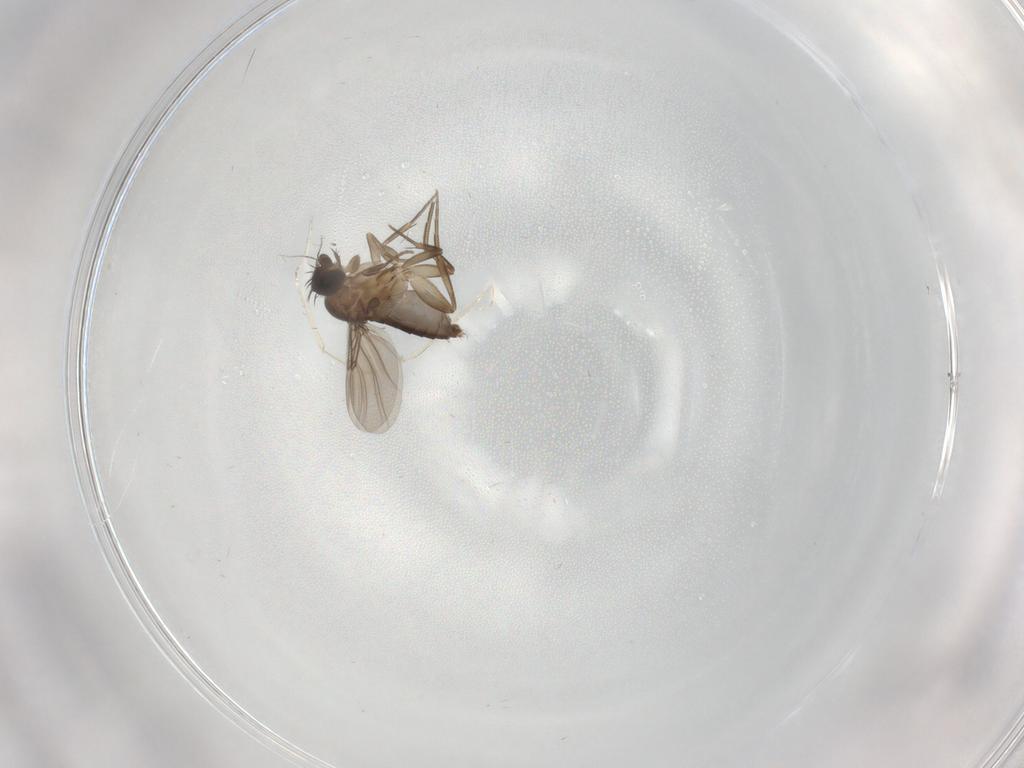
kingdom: Animalia
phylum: Arthropoda
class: Insecta
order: Diptera
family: Phoridae
